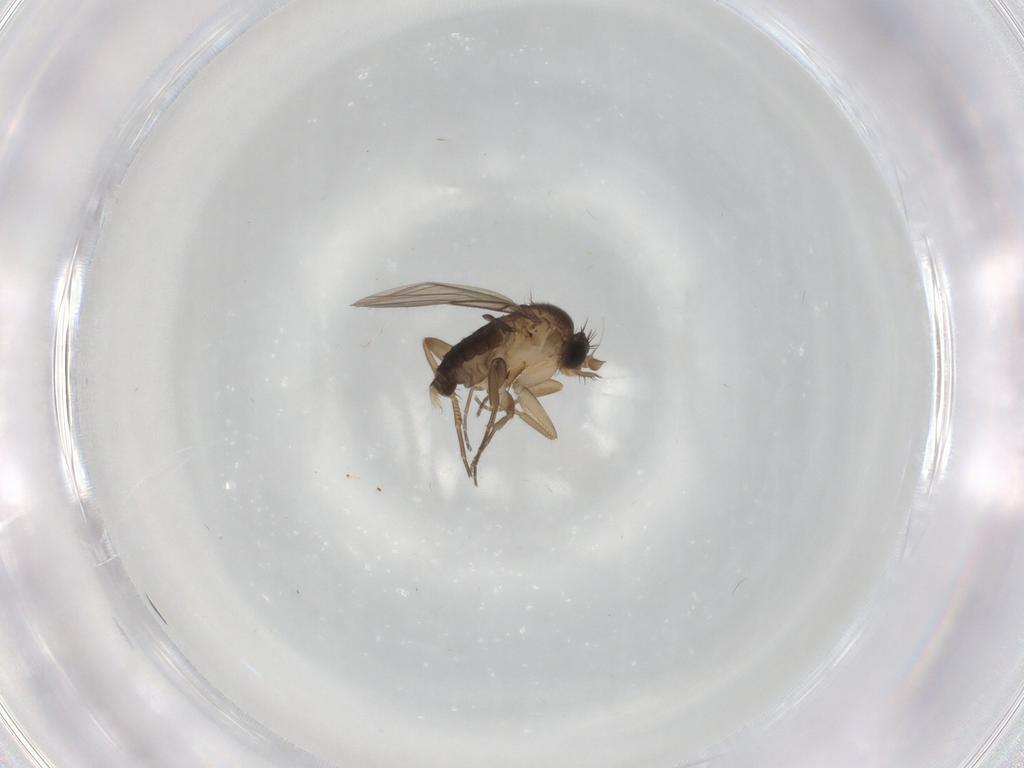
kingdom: Animalia
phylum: Arthropoda
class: Insecta
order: Diptera
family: Phoridae
